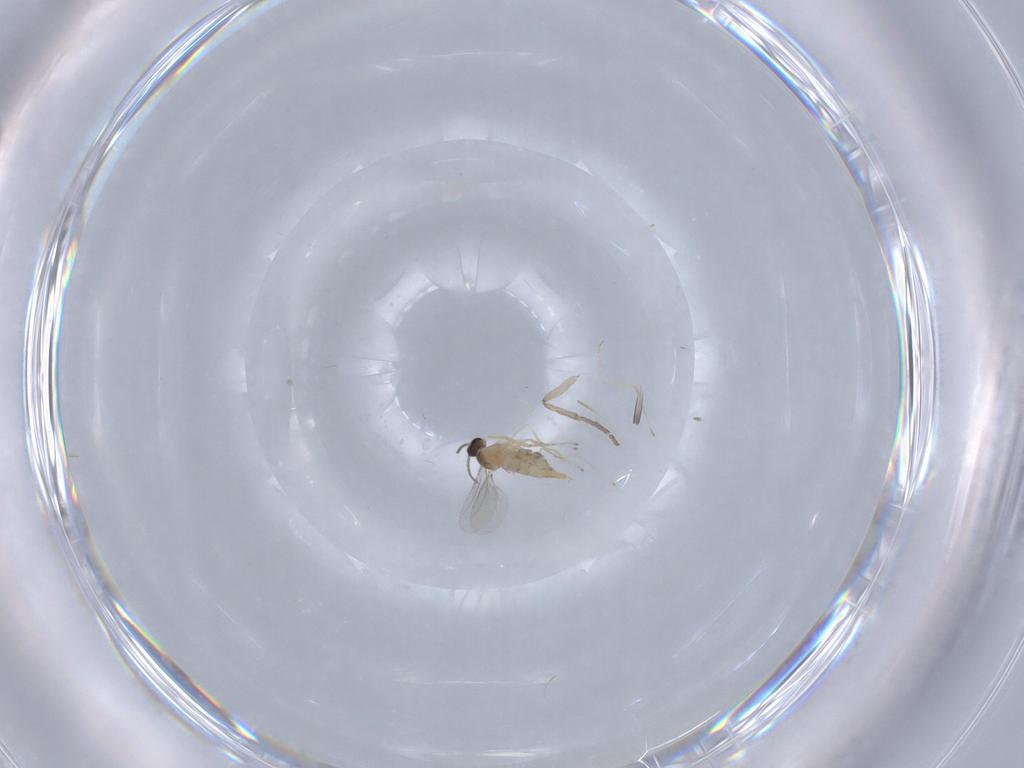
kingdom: Animalia
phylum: Arthropoda
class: Insecta
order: Diptera
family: Cecidomyiidae
